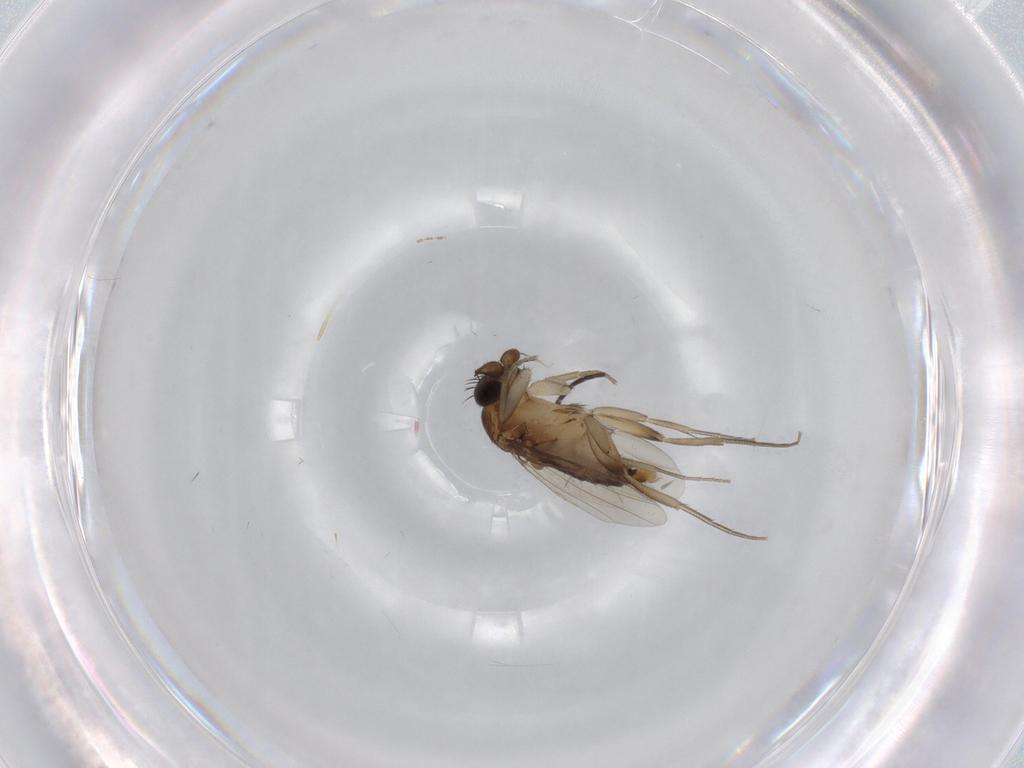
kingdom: Animalia
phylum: Arthropoda
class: Insecta
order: Diptera
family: Phoridae
